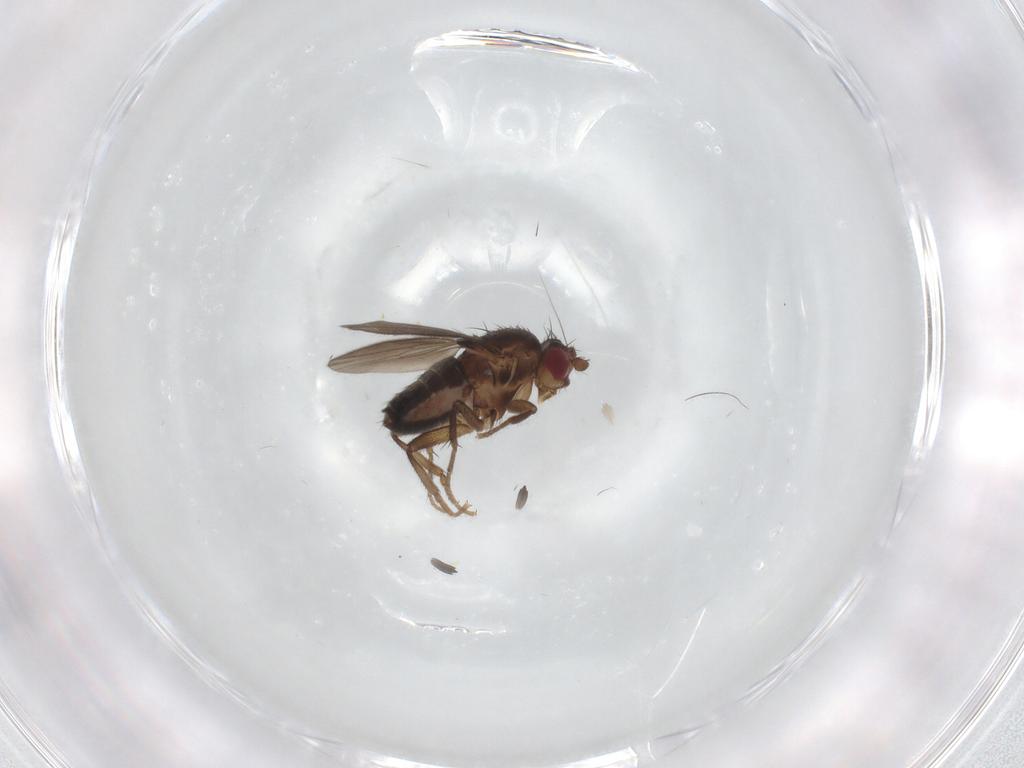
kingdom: Animalia
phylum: Arthropoda
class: Insecta
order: Diptera
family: Sphaeroceridae
